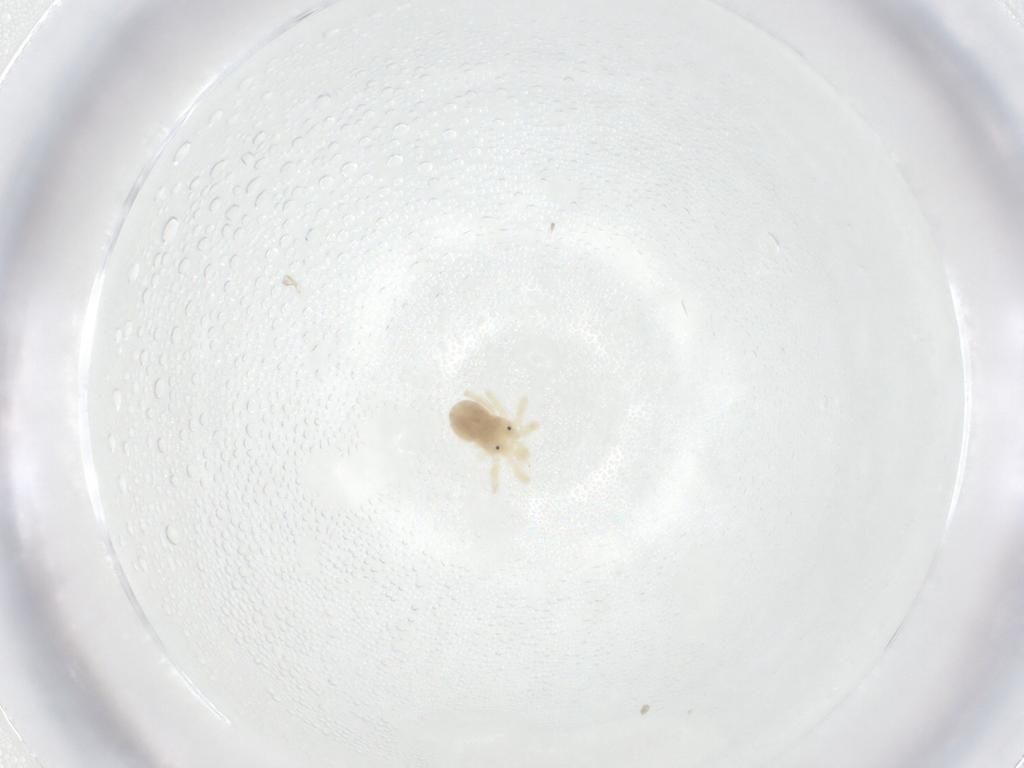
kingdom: Animalia
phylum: Arthropoda
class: Arachnida
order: Trombidiformes
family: Anystidae
